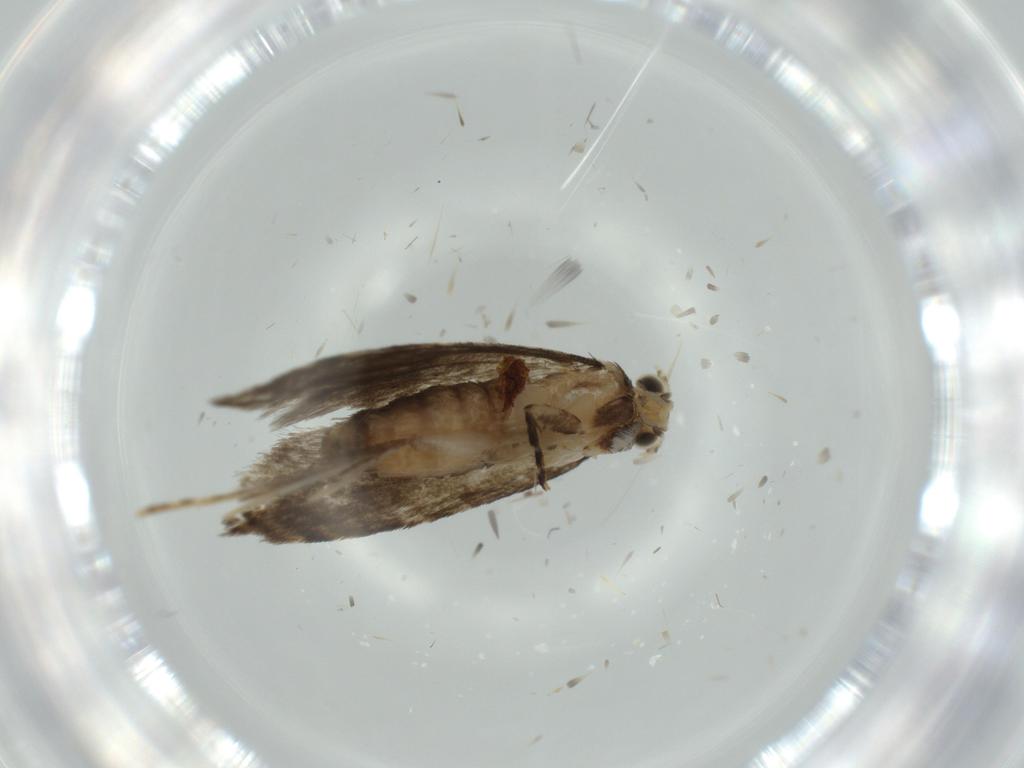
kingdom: Animalia
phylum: Arthropoda
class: Insecta
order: Lepidoptera
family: Tineidae
